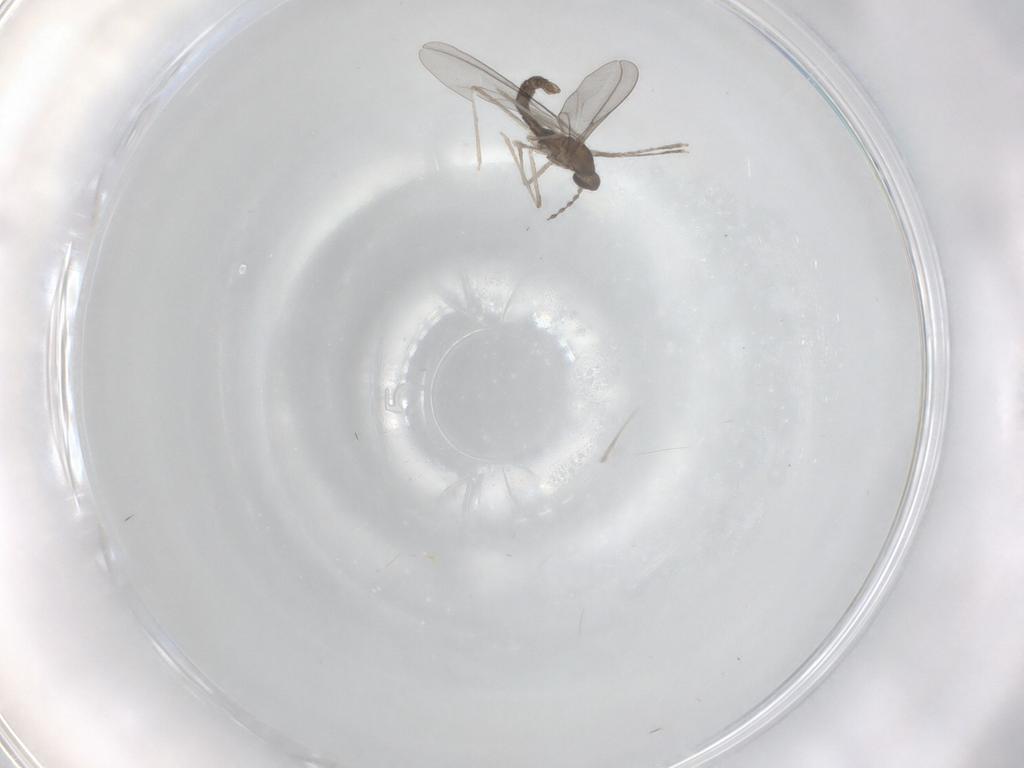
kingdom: Animalia
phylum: Arthropoda
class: Insecta
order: Diptera
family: Cecidomyiidae
